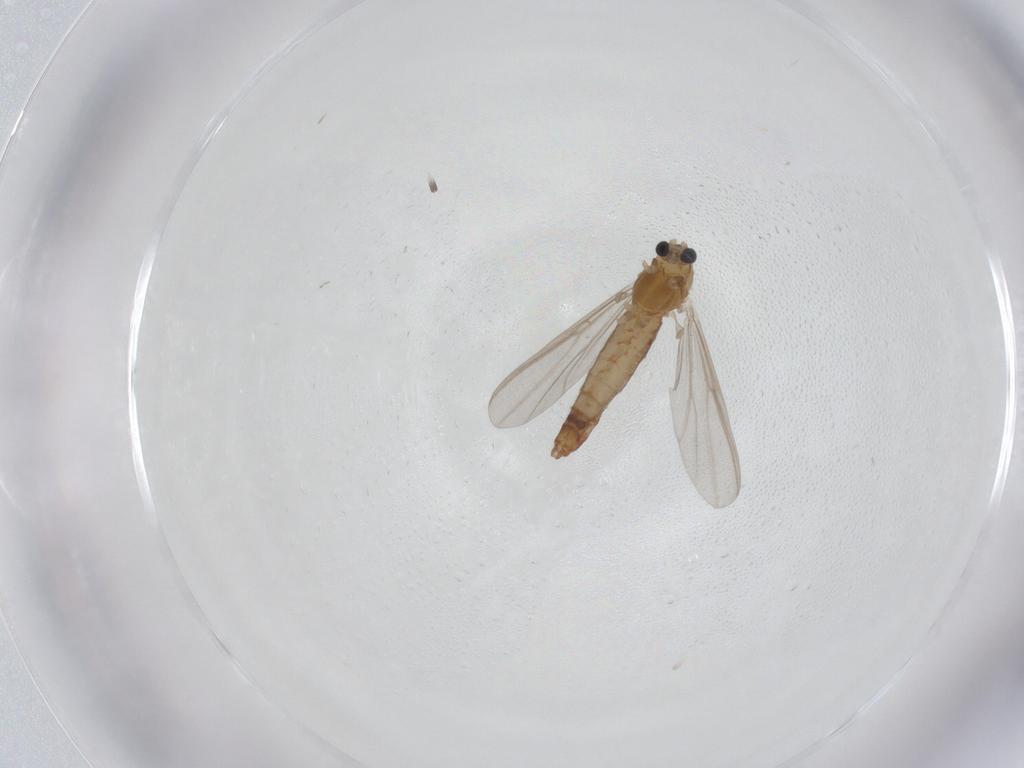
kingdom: Animalia
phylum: Arthropoda
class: Insecta
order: Diptera
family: Chironomidae
